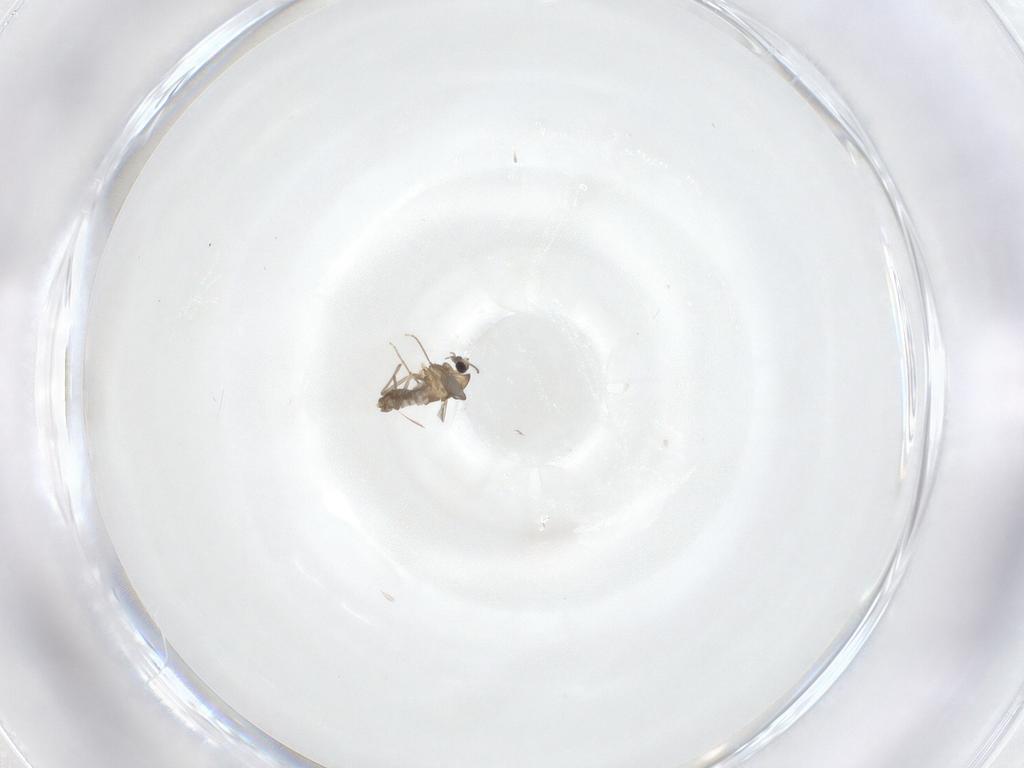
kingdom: Animalia
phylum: Arthropoda
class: Insecta
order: Diptera
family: Chironomidae
